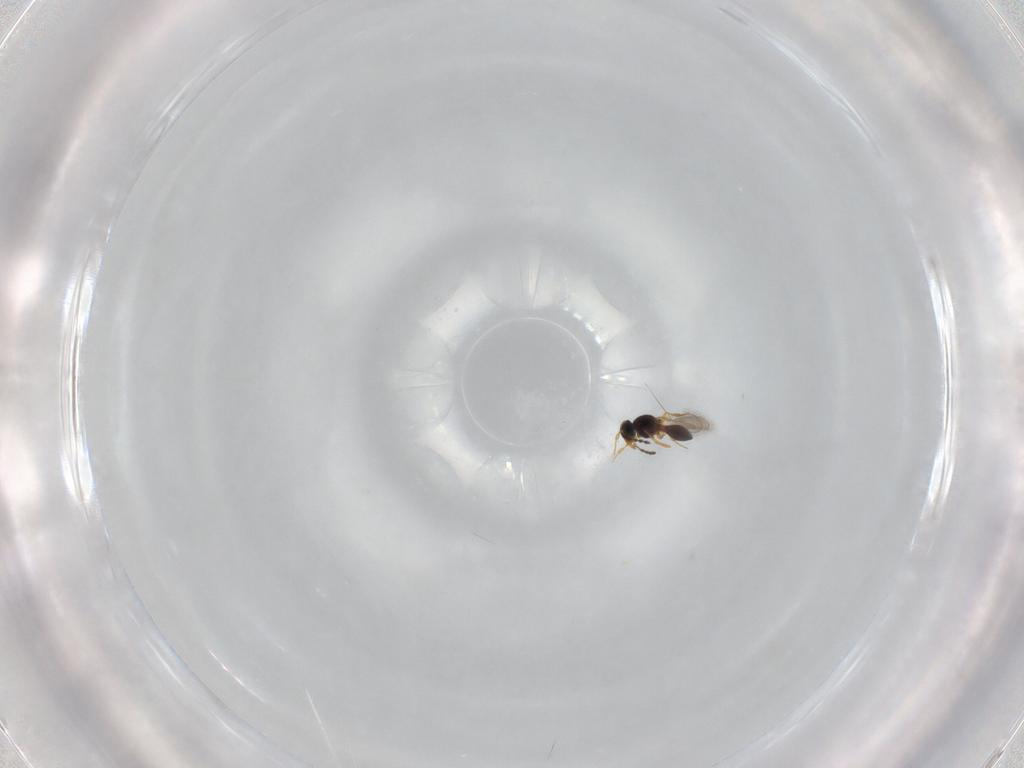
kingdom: Animalia
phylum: Arthropoda
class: Insecta
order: Hymenoptera
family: Platygastridae
